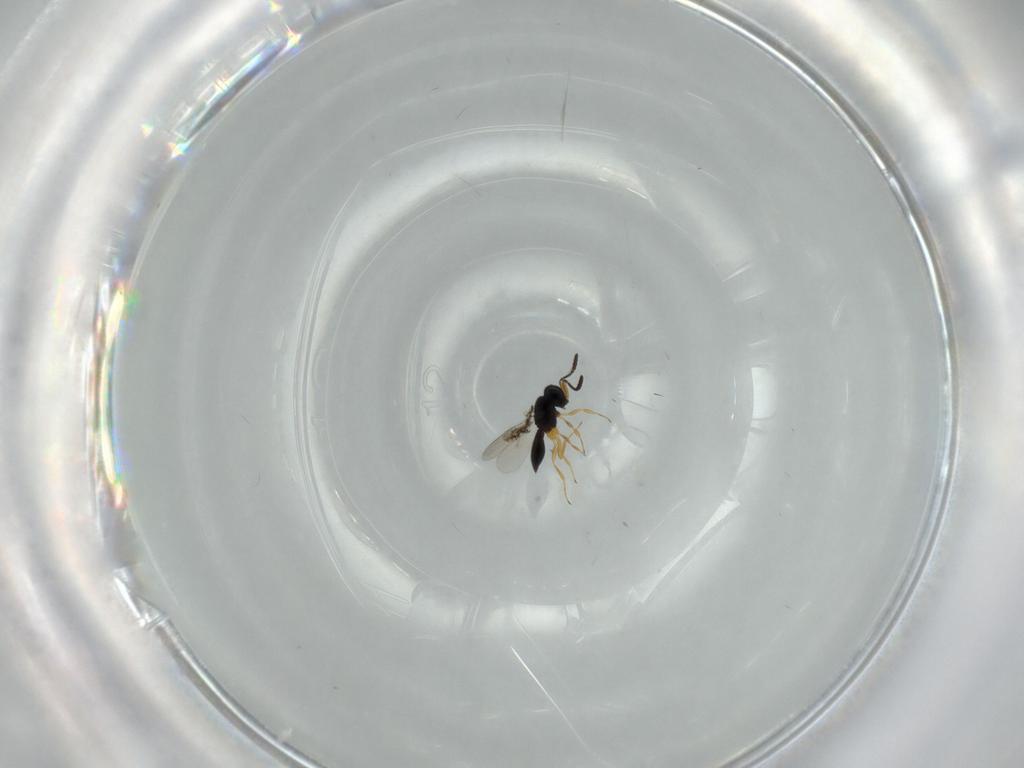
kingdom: Animalia
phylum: Arthropoda
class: Insecta
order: Hymenoptera
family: Scelionidae
